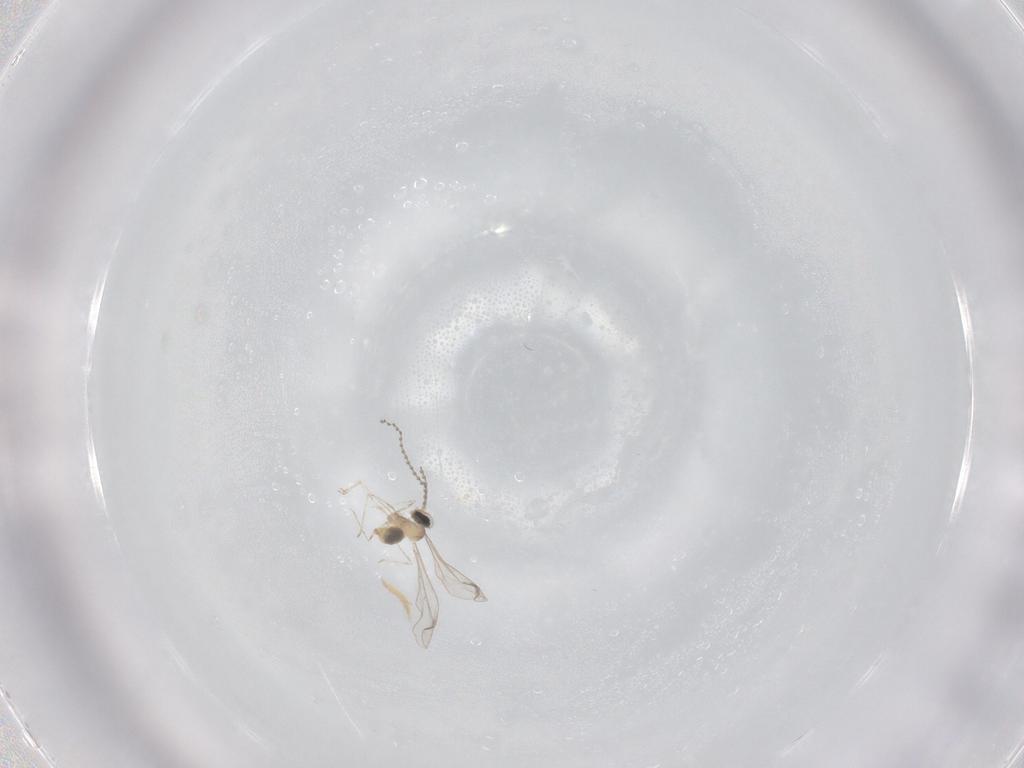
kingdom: Animalia
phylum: Arthropoda
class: Insecta
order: Diptera
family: Cecidomyiidae
